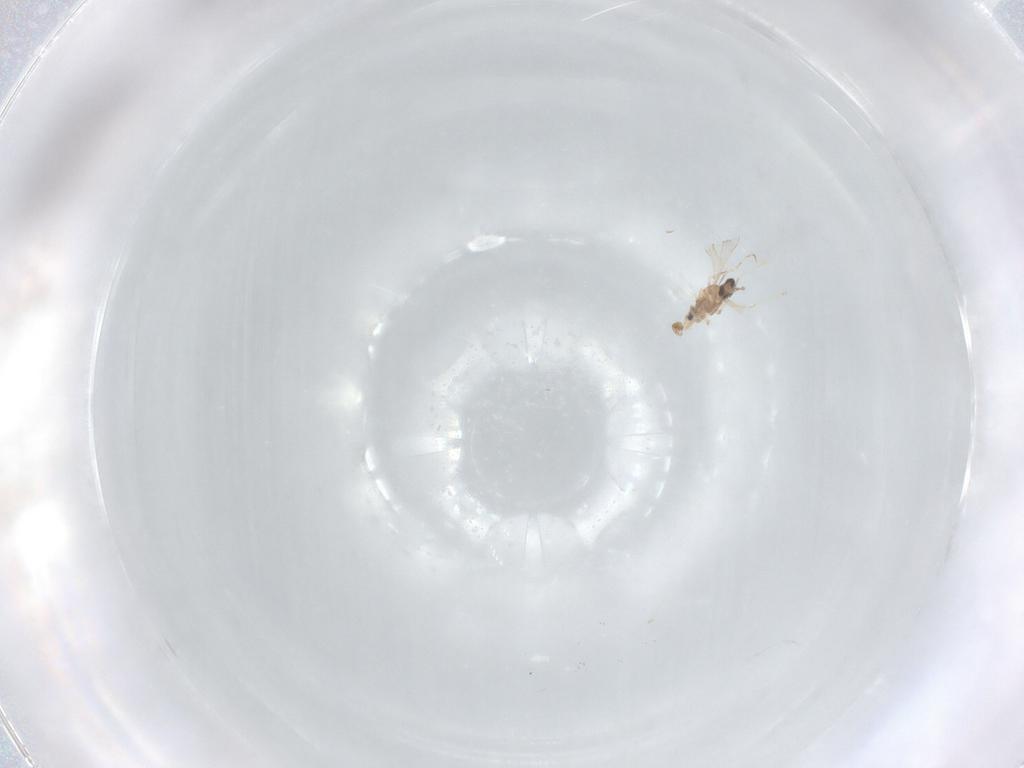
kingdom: Animalia
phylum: Arthropoda
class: Insecta
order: Diptera
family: Cecidomyiidae
